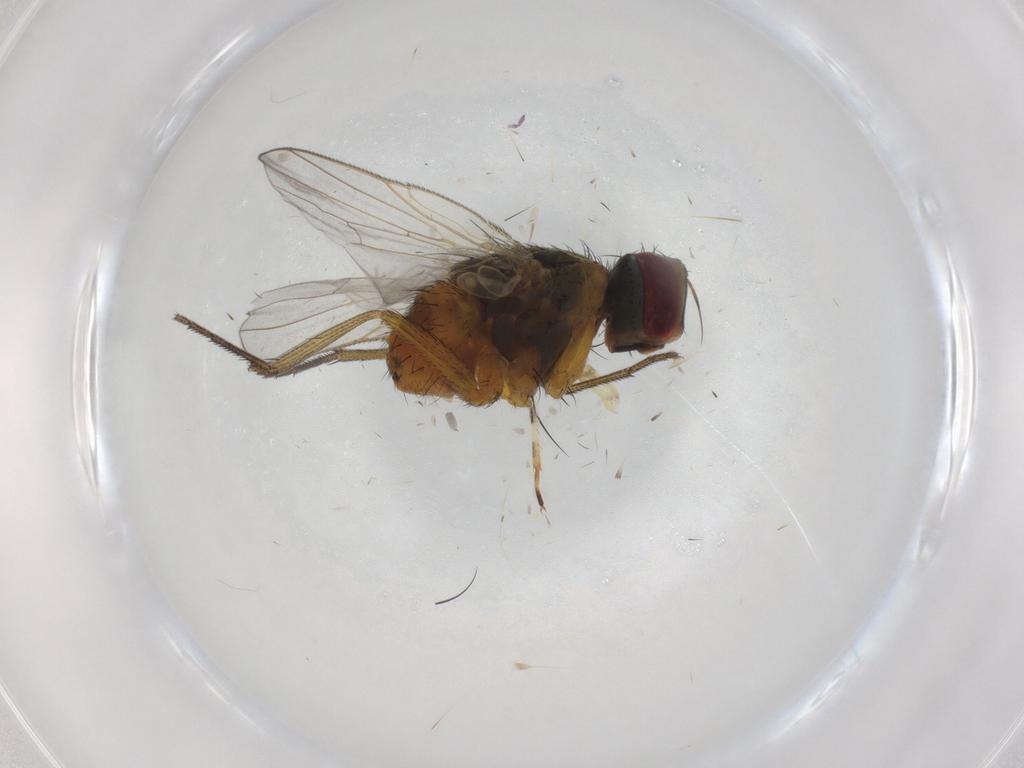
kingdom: Animalia
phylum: Arthropoda
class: Insecta
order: Diptera
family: Muscidae
